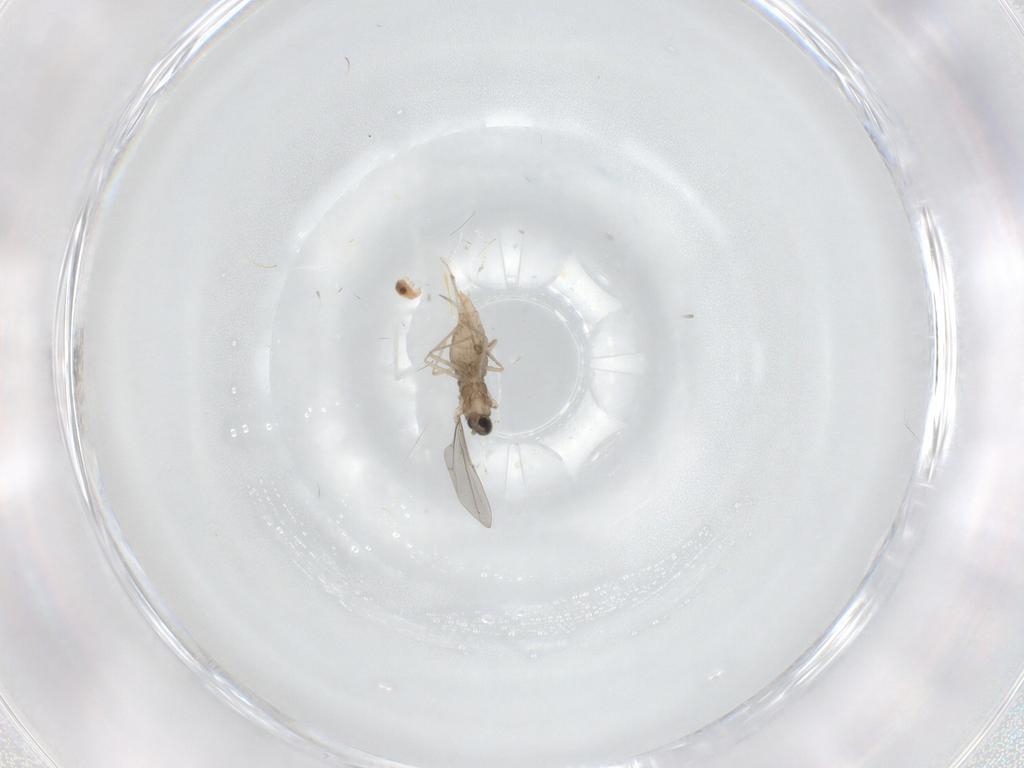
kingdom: Animalia
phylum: Arthropoda
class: Insecta
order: Diptera
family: Cecidomyiidae
